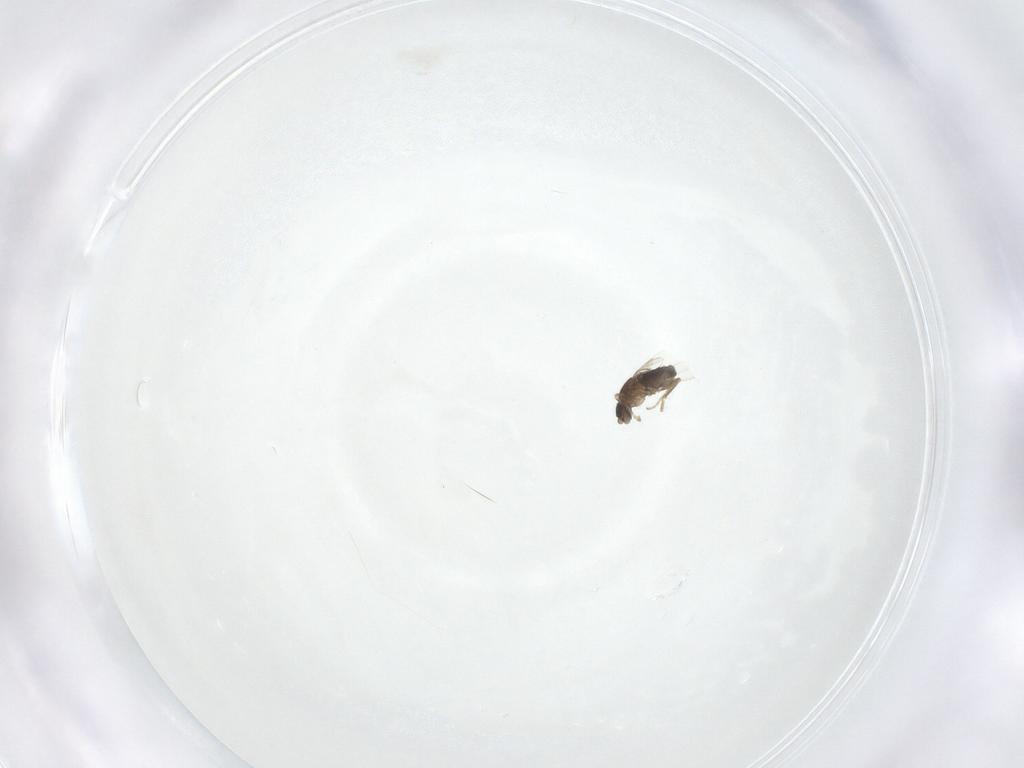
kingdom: Animalia
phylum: Arthropoda
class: Insecta
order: Diptera
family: Phoridae
